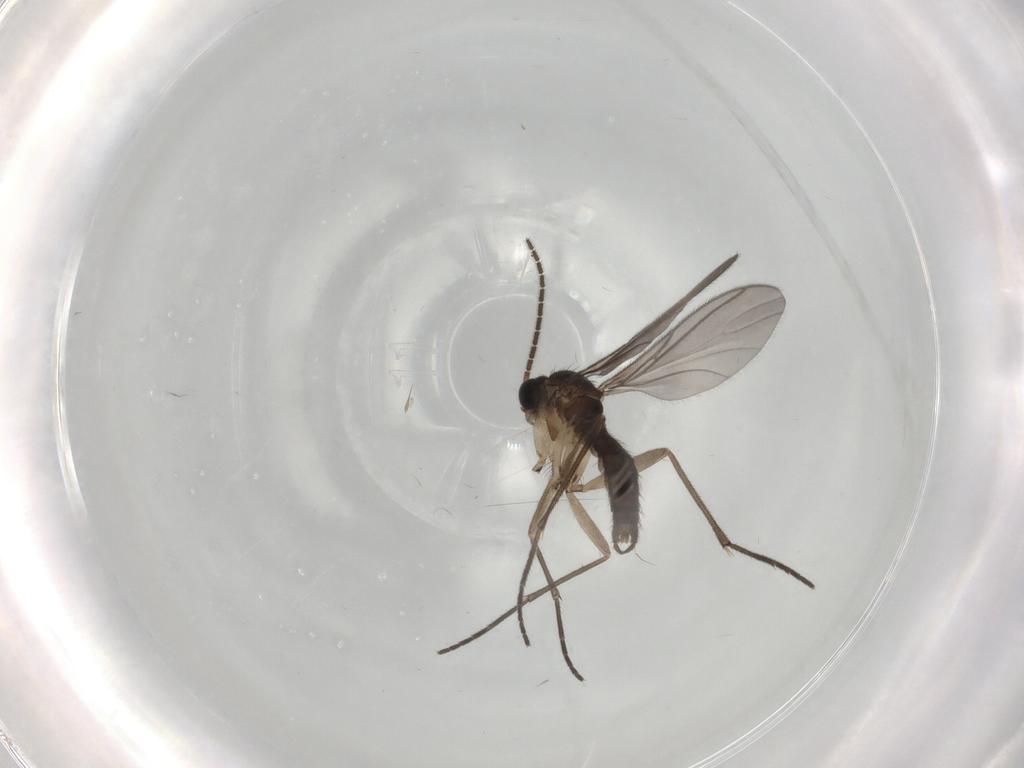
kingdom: Animalia
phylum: Arthropoda
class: Insecta
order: Diptera
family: Sciaridae
